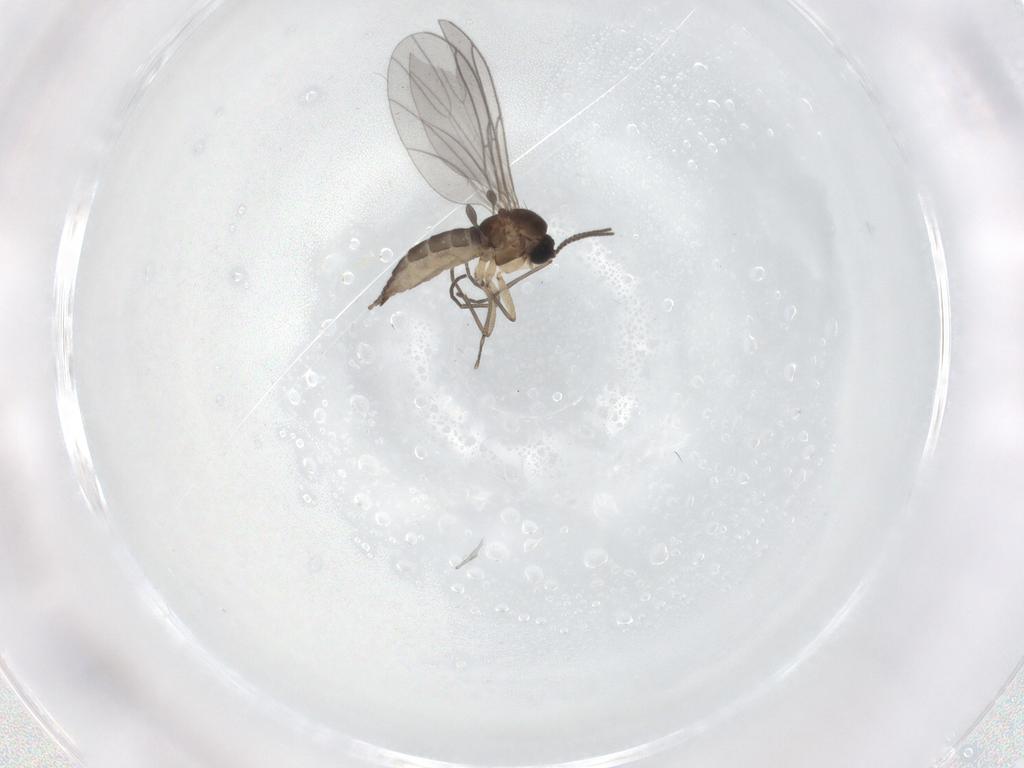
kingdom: Animalia
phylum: Arthropoda
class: Insecta
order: Diptera
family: Sciaridae
